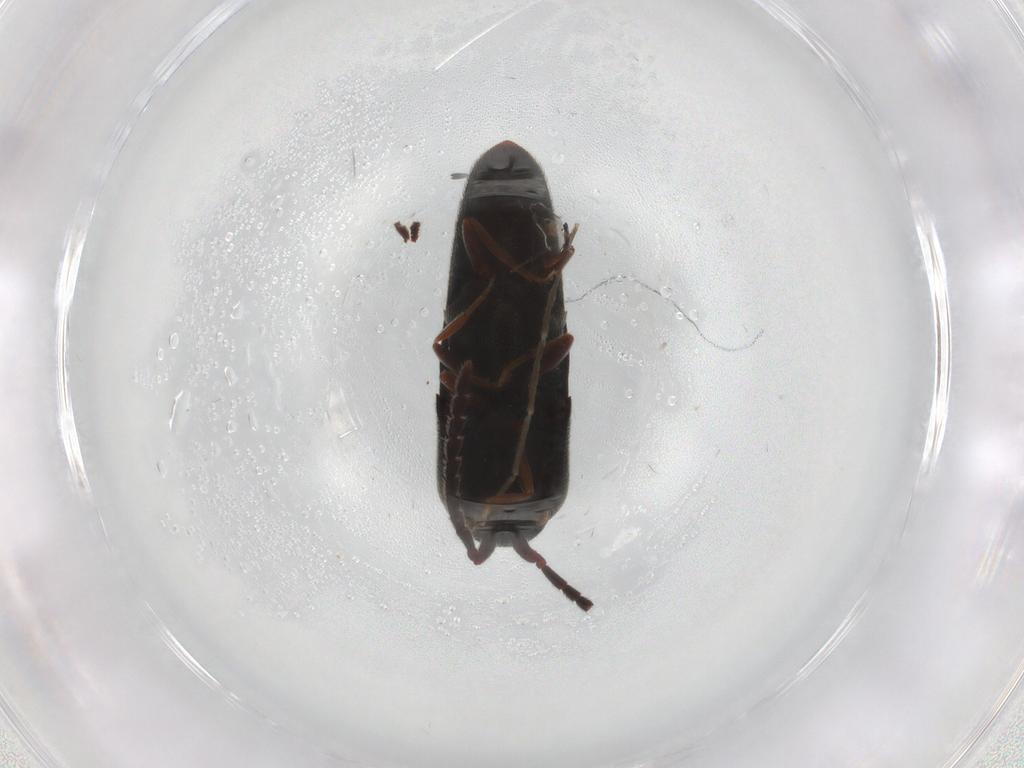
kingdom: Animalia
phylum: Arthropoda
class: Insecta
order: Coleoptera
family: Eucnemidae
